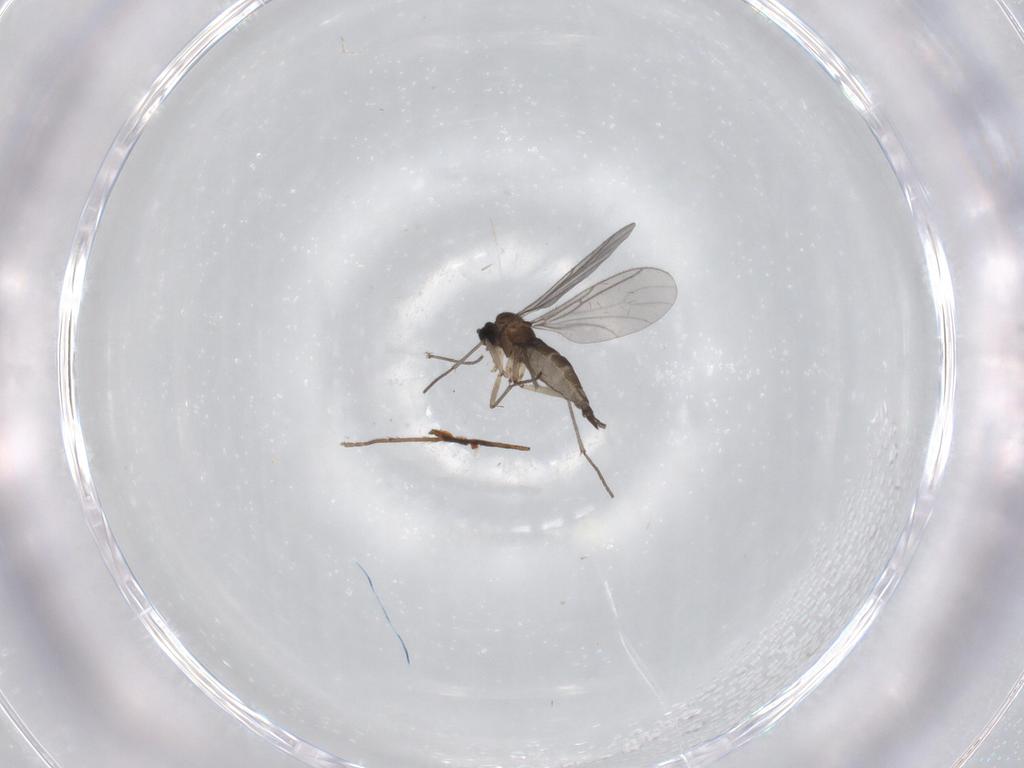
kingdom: Animalia
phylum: Arthropoda
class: Insecta
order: Diptera
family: Sciaridae
